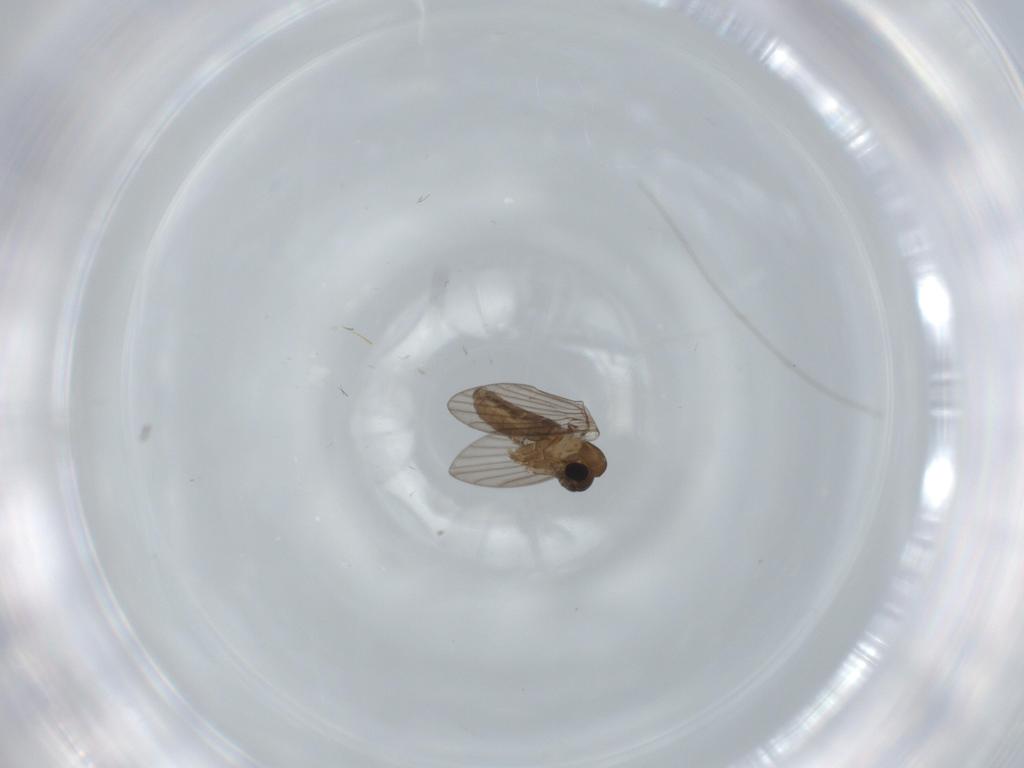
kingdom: Animalia
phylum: Arthropoda
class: Insecta
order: Diptera
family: Psychodidae
